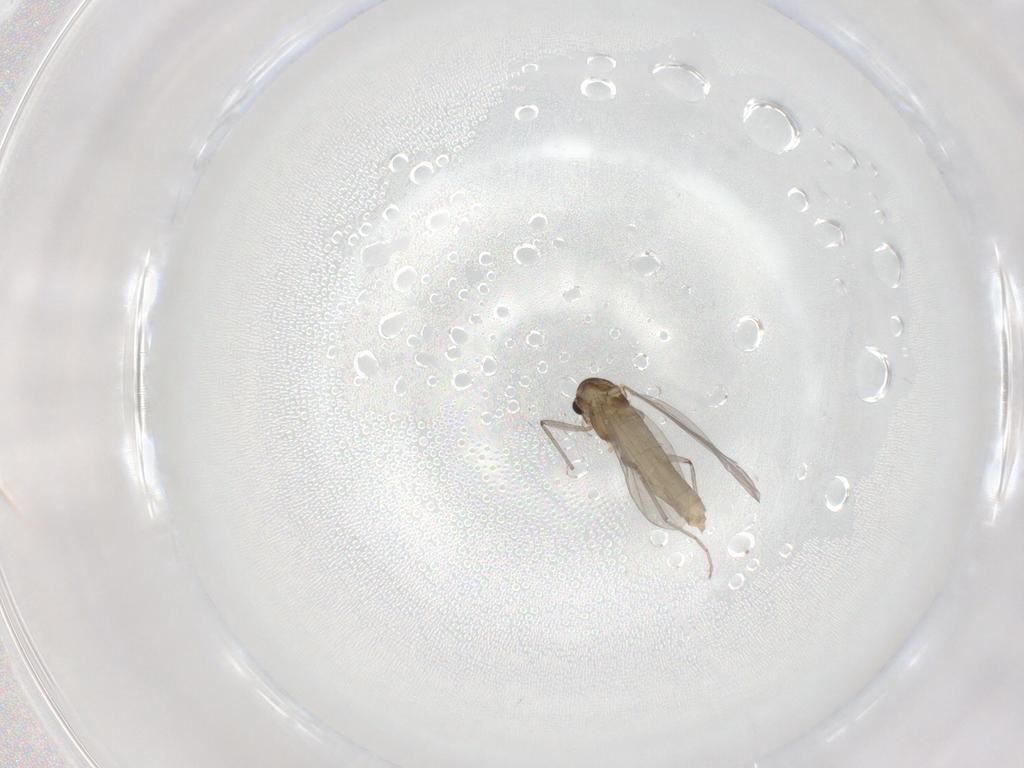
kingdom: Animalia
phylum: Arthropoda
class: Insecta
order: Diptera
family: Chironomidae
